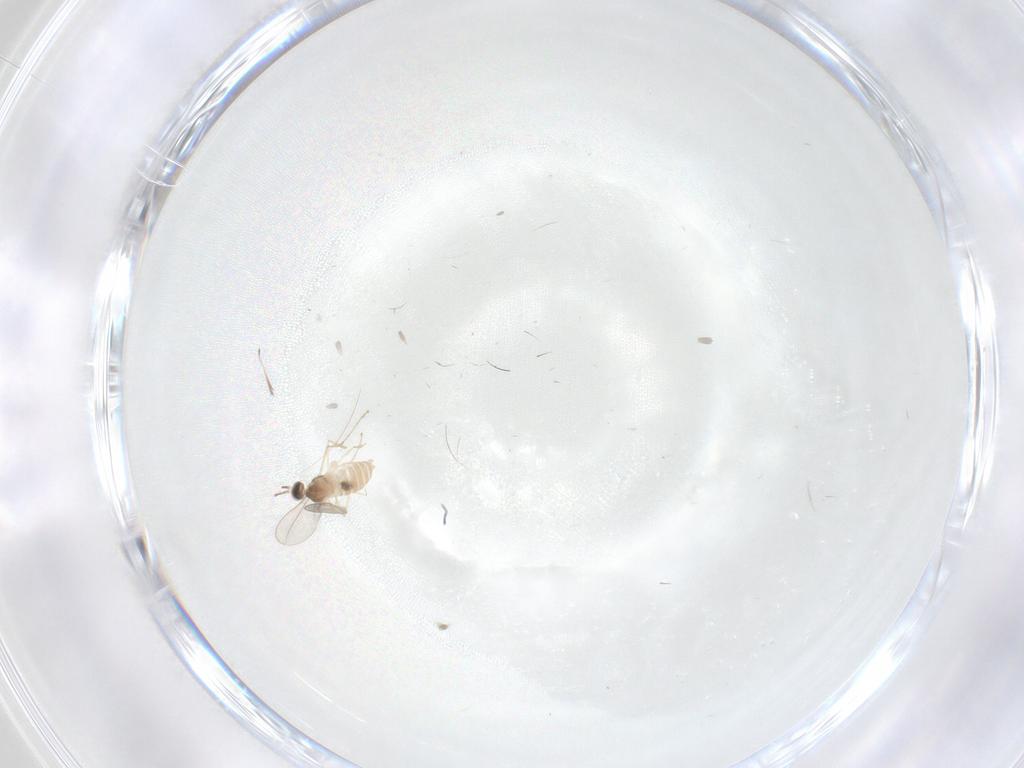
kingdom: Animalia
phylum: Arthropoda
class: Insecta
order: Diptera
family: Cecidomyiidae
